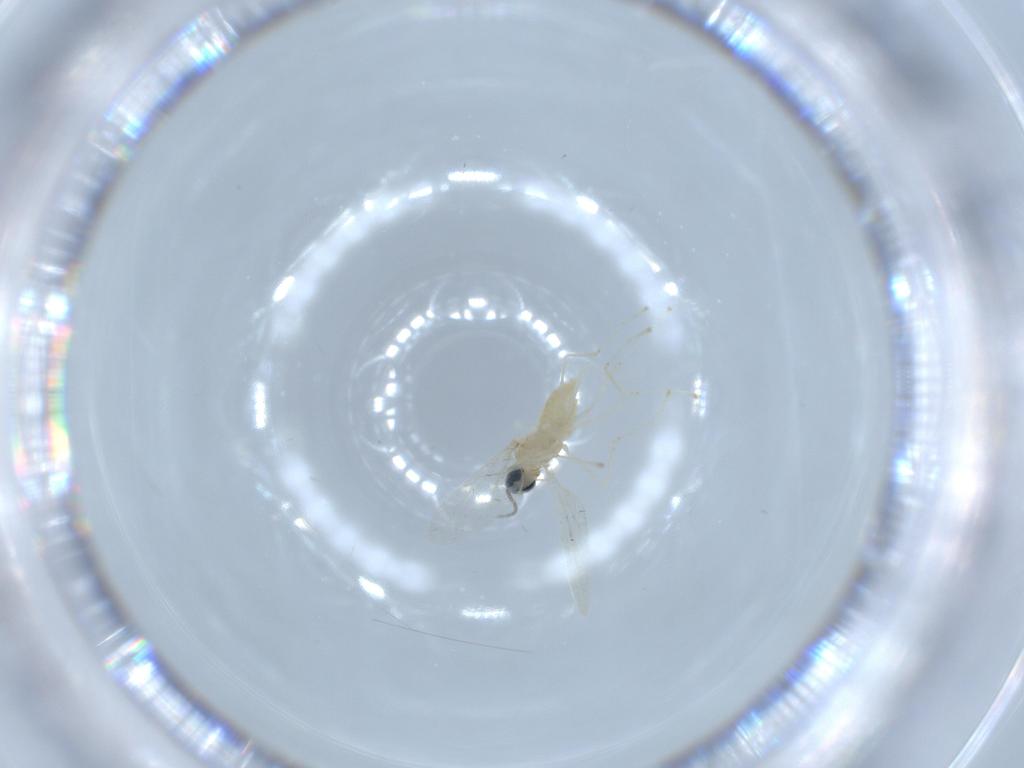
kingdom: Animalia
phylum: Arthropoda
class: Insecta
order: Diptera
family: Cecidomyiidae
